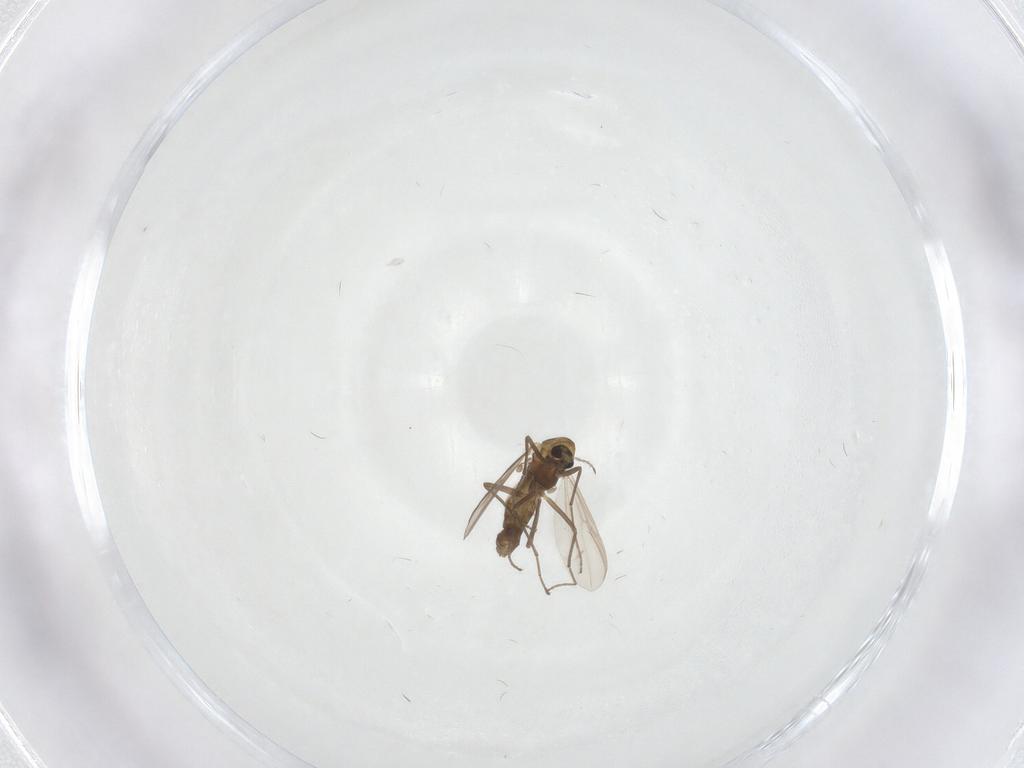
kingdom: Animalia
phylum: Arthropoda
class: Insecta
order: Diptera
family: Chironomidae
